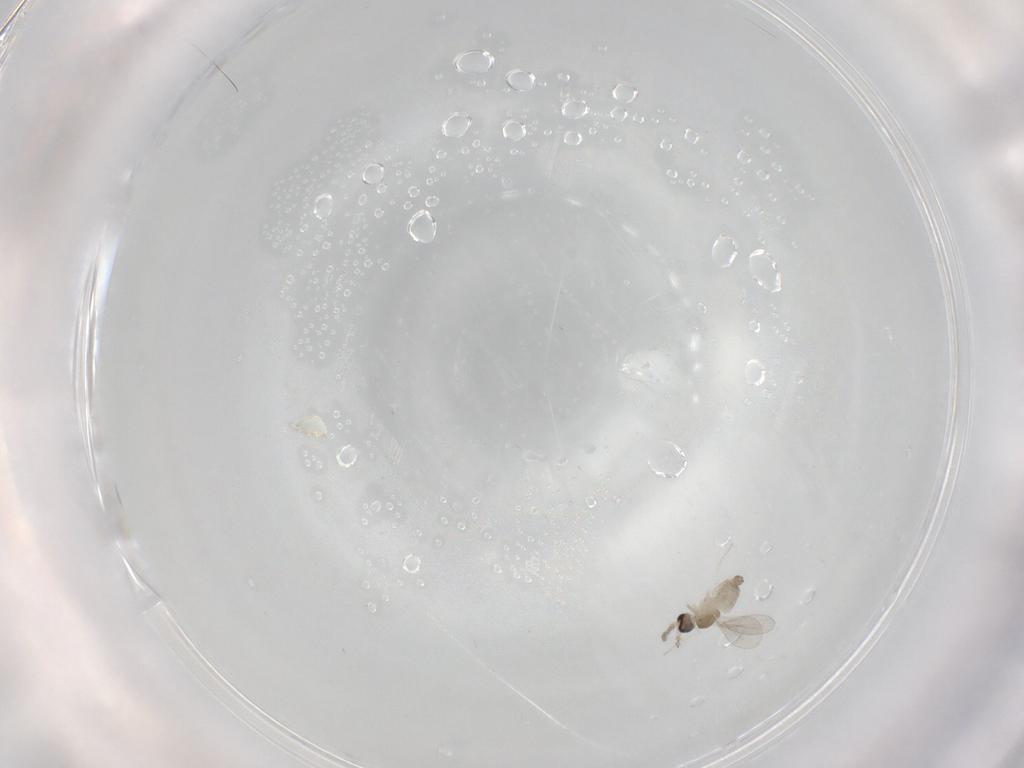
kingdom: Animalia
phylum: Arthropoda
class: Insecta
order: Diptera
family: Cecidomyiidae
